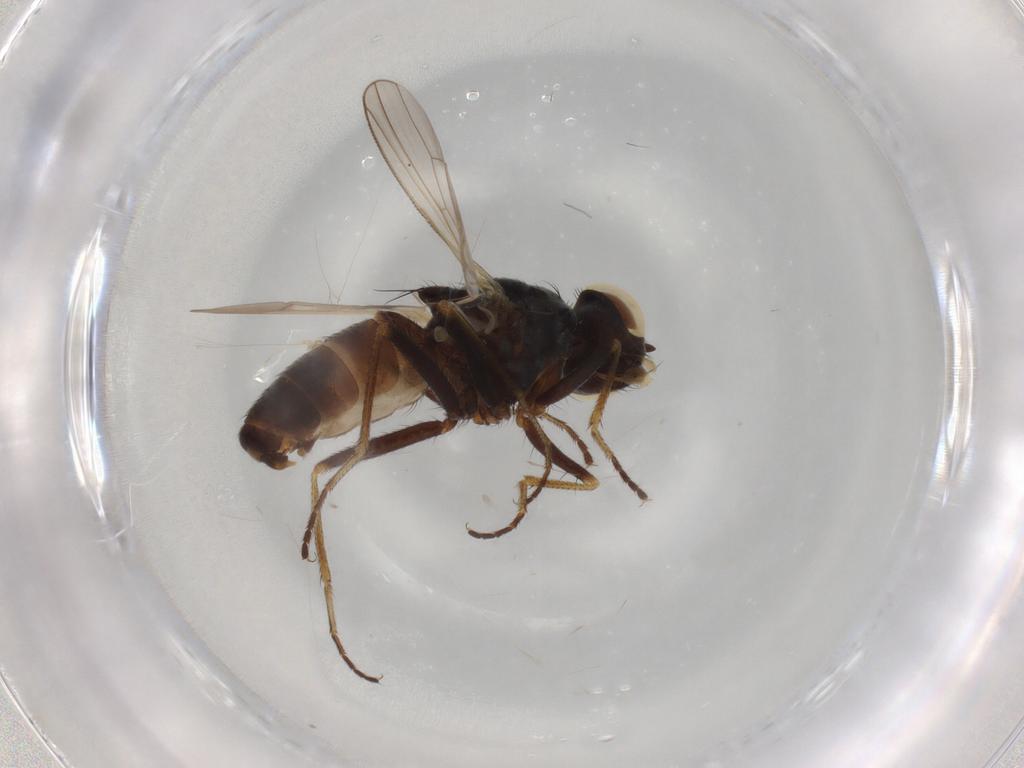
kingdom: Animalia
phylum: Arthropoda
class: Insecta
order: Diptera
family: Muscidae
